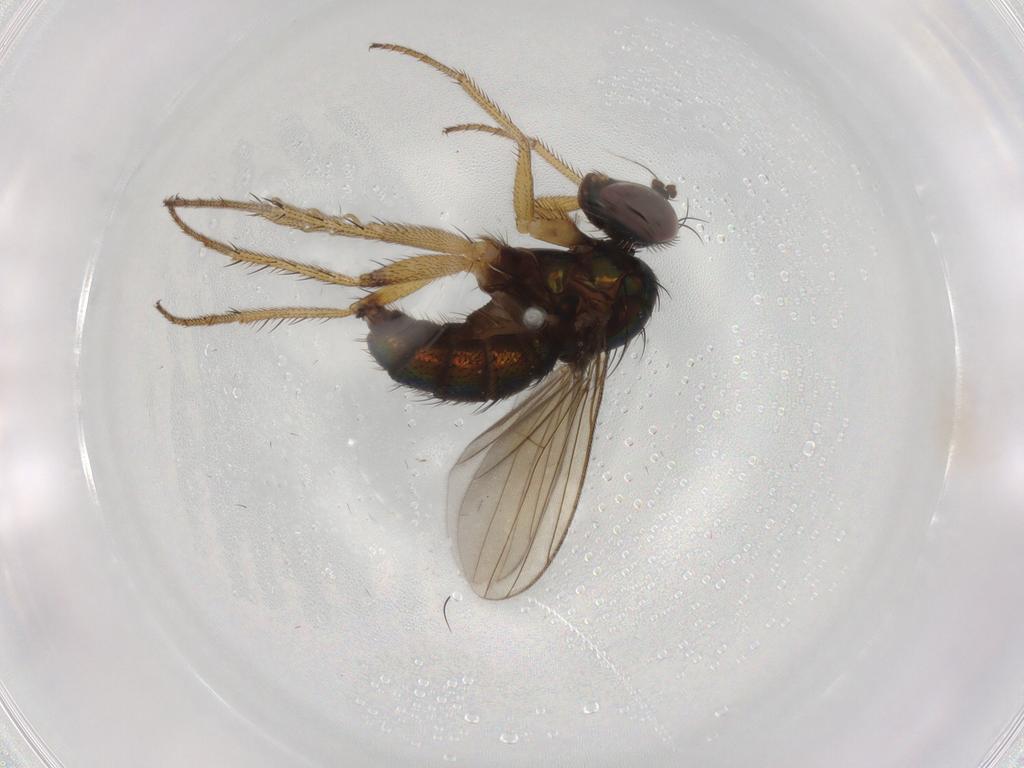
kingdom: Animalia
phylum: Arthropoda
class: Insecta
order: Diptera
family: Dolichopodidae
